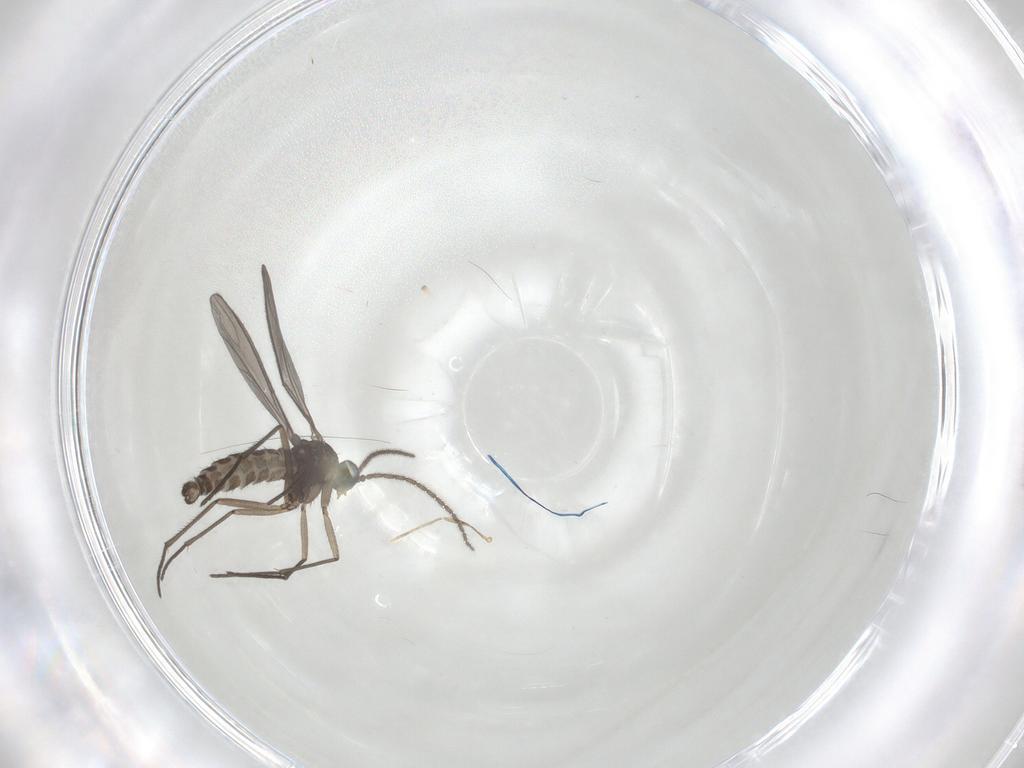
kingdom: Animalia
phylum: Arthropoda
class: Insecta
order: Diptera
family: Sciaridae
